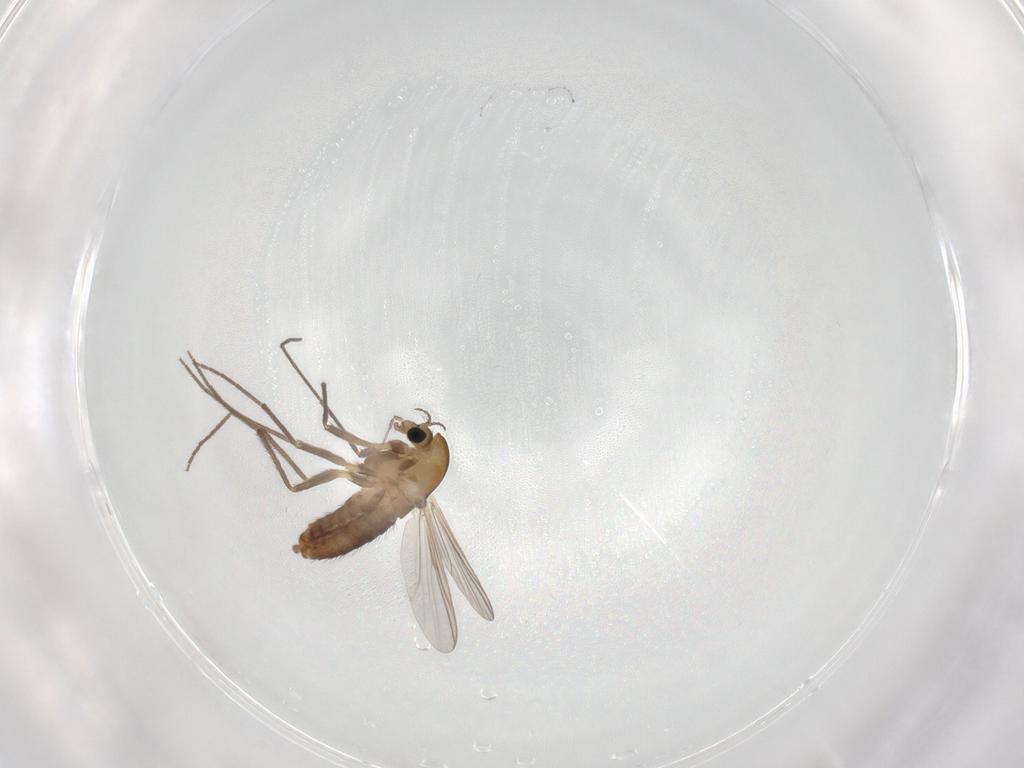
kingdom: Animalia
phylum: Arthropoda
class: Insecta
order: Diptera
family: Chironomidae
